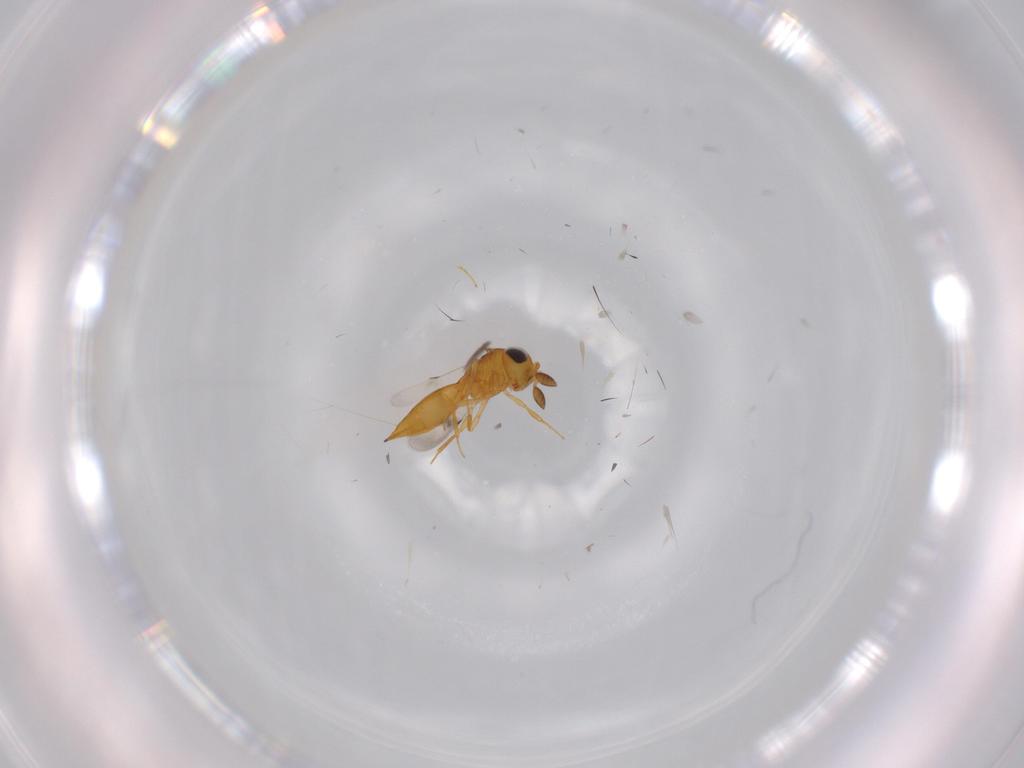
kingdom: Animalia
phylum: Arthropoda
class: Insecta
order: Hymenoptera
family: Scelionidae
